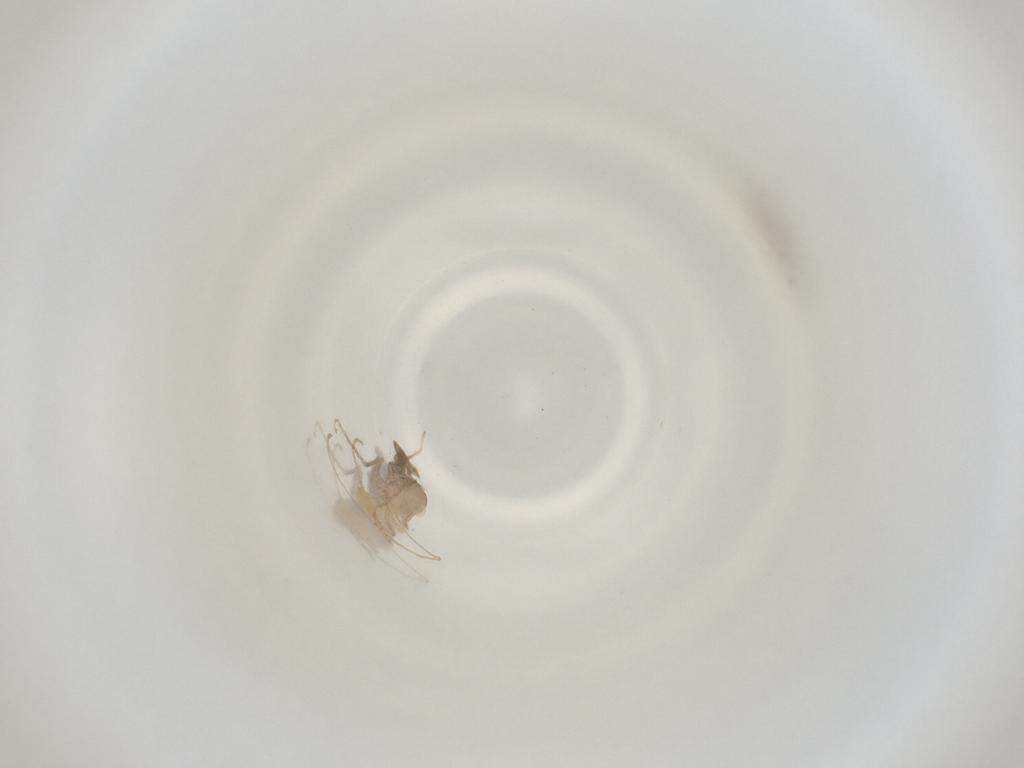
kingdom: Animalia
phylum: Arthropoda
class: Insecta
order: Diptera
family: Cecidomyiidae
